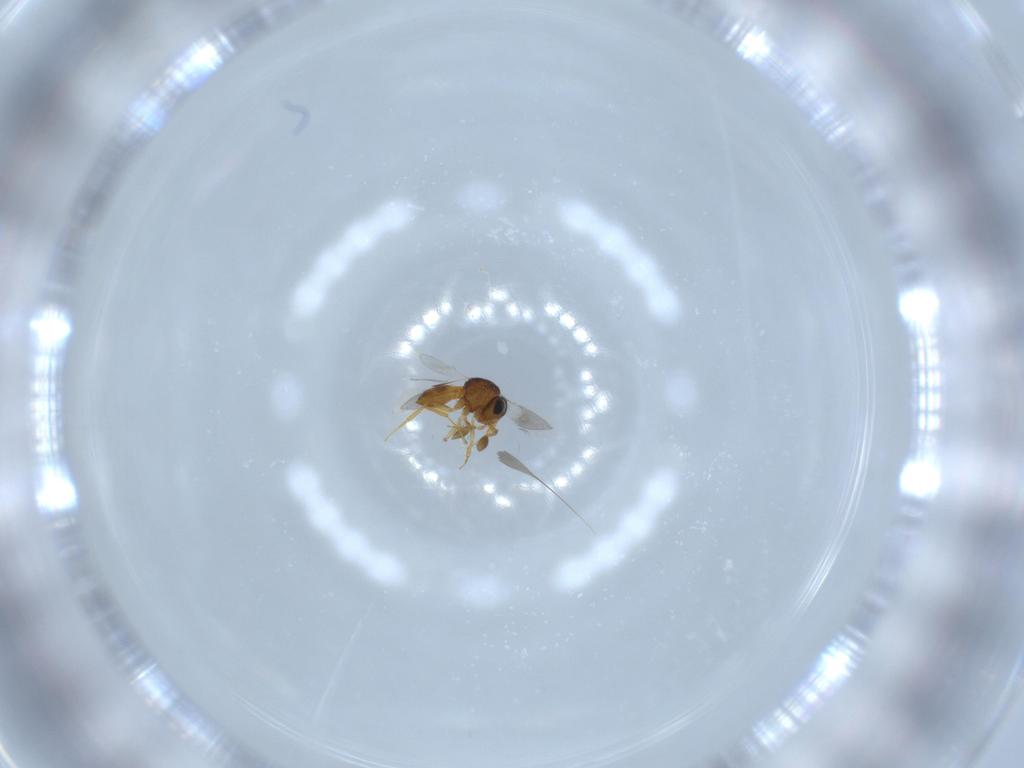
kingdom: Animalia
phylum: Arthropoda
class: Insecta
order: Hymenoptera
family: Scelionidae
